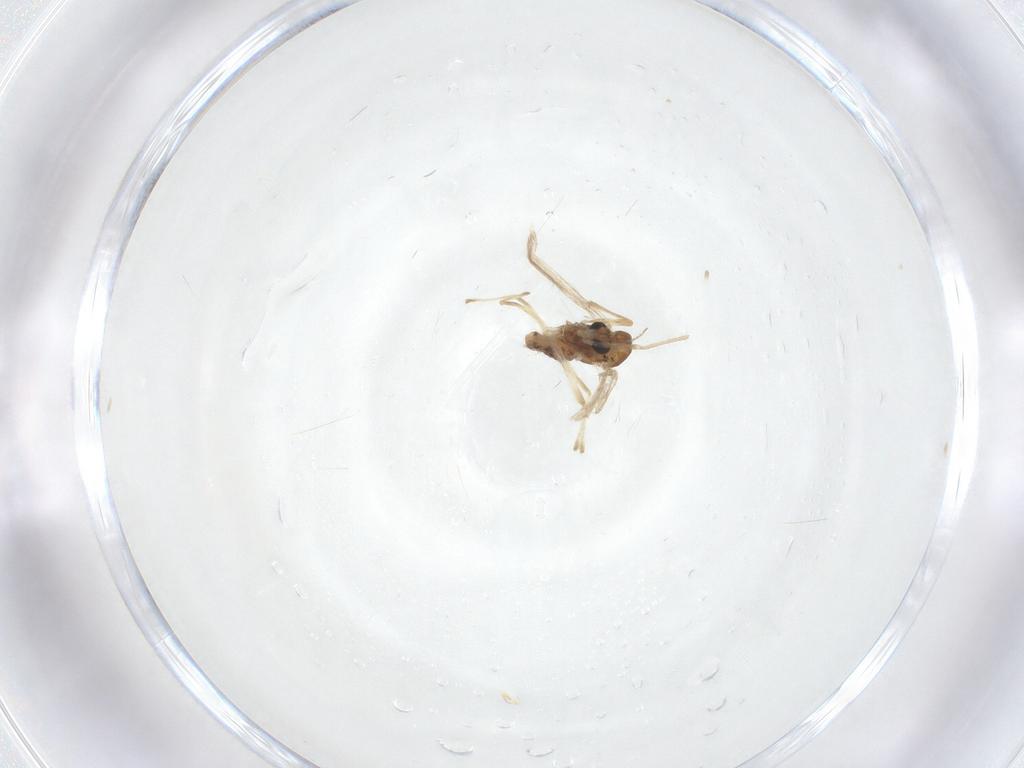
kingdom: Animalia
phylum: Arthropoda
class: Insecta
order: Diptera
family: Chironomidae
